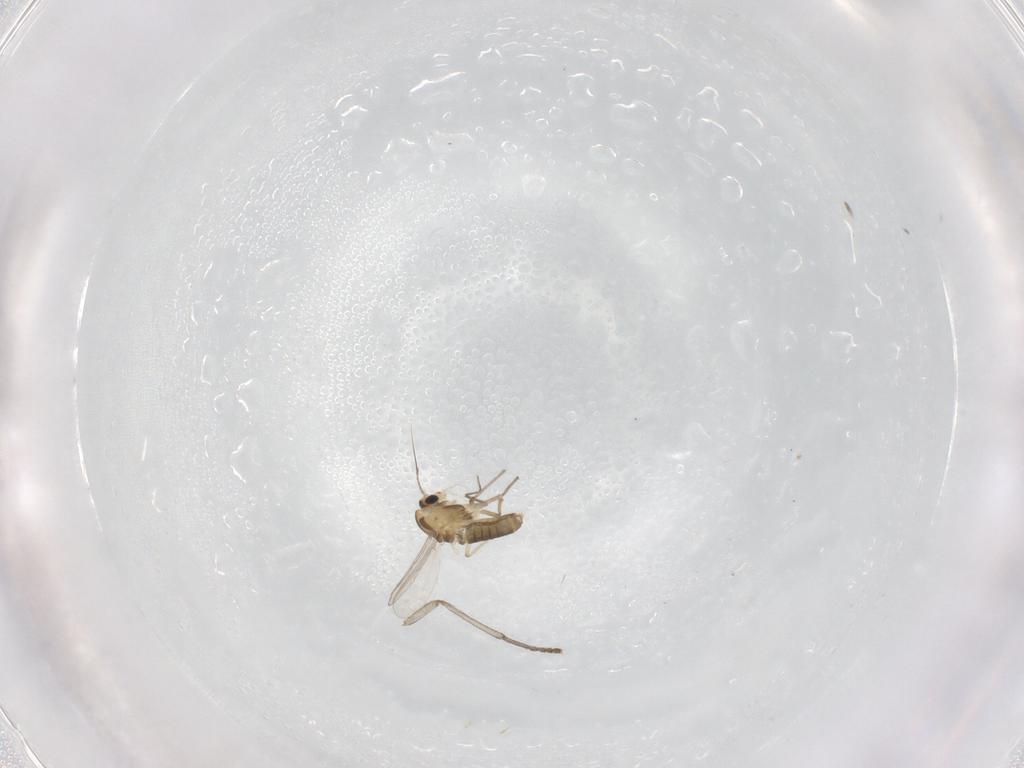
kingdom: Animalia
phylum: Arthropoda
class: Insecta
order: Diptera
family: Psychodidae
